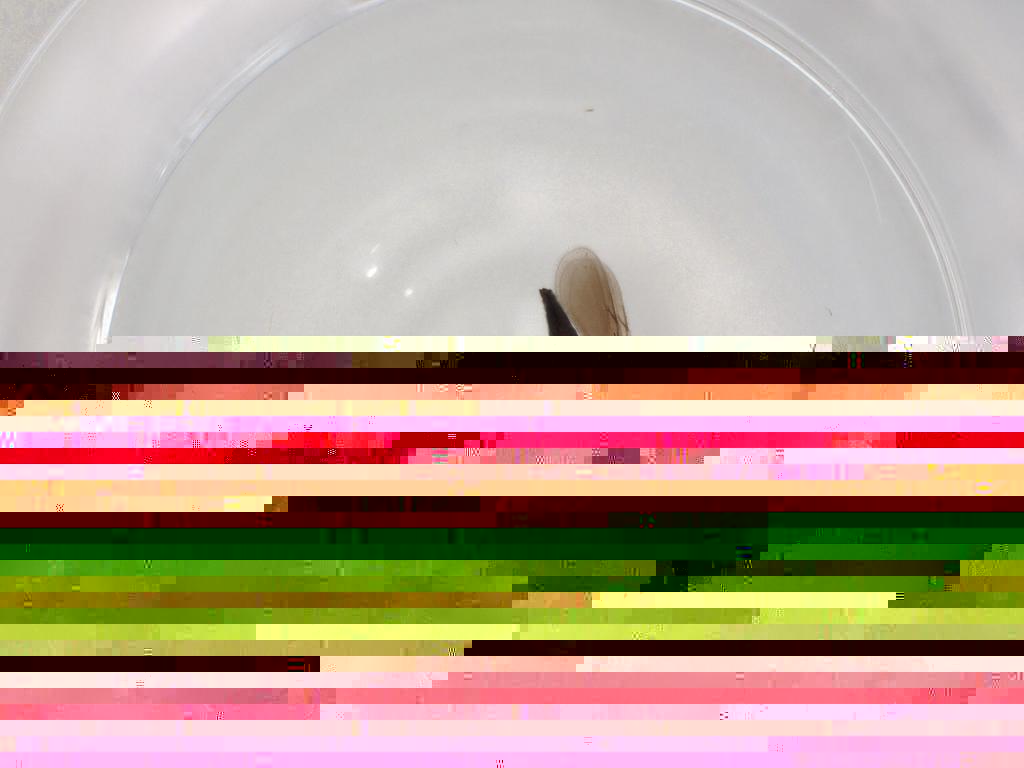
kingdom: Animalia
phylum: Arthropoda
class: Insecta
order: Hymenoptera
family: Scelionidae
